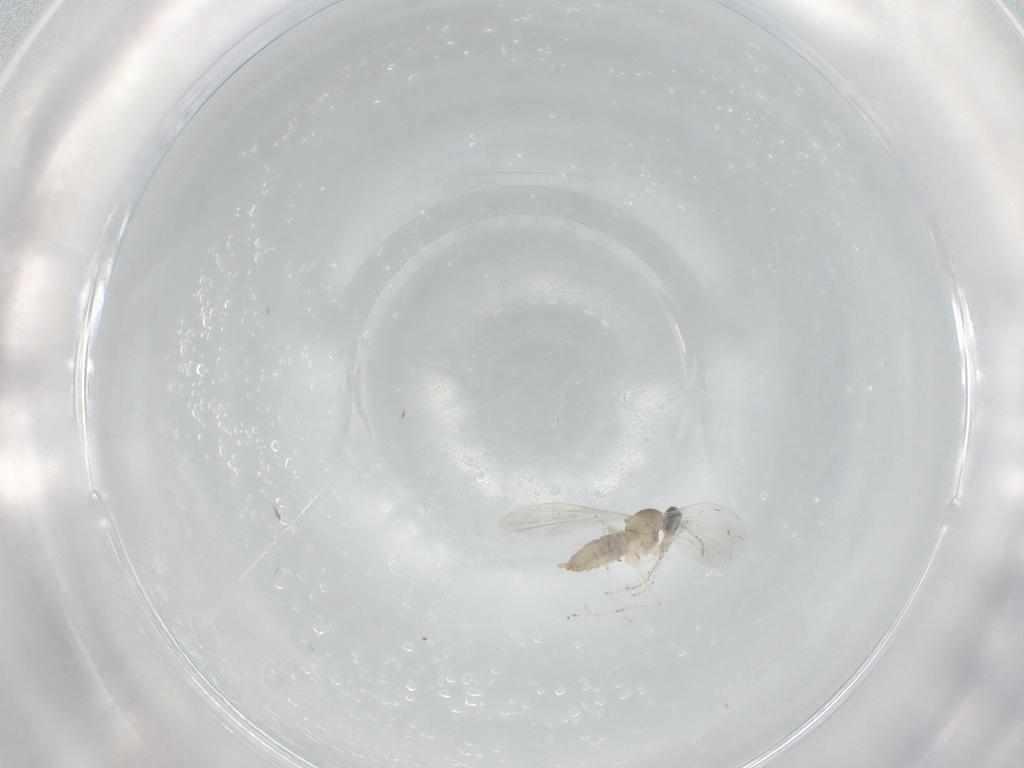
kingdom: Animalia
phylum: Arthropoda
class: Insecta
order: Diptera
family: Cecidomyiidae
